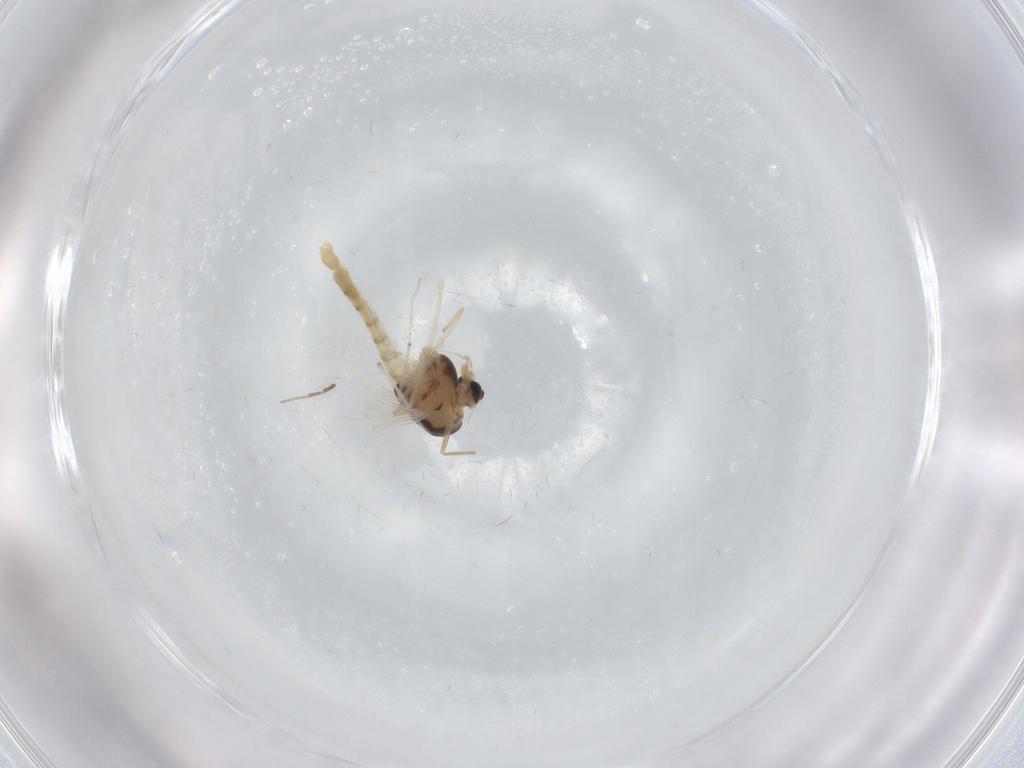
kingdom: Animalia
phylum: Arthropoda
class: Insecta
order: Diptera
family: Chironomidae
